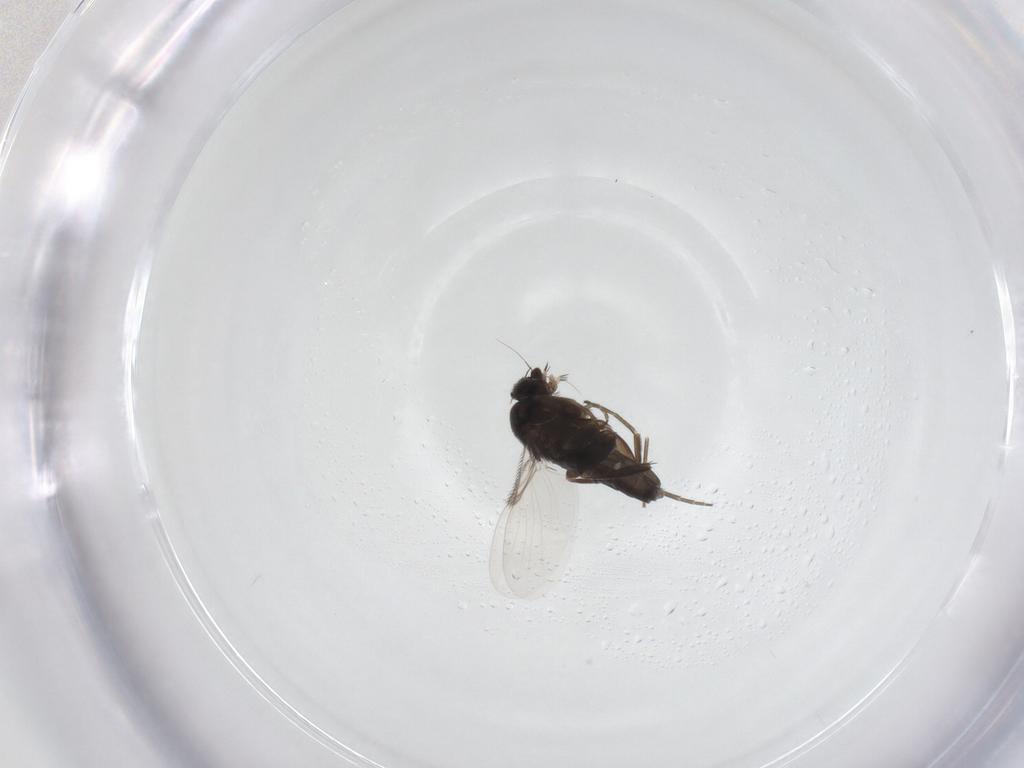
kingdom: Animalia
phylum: Arthropoda
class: Insecta
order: Diptera
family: Phoridae
